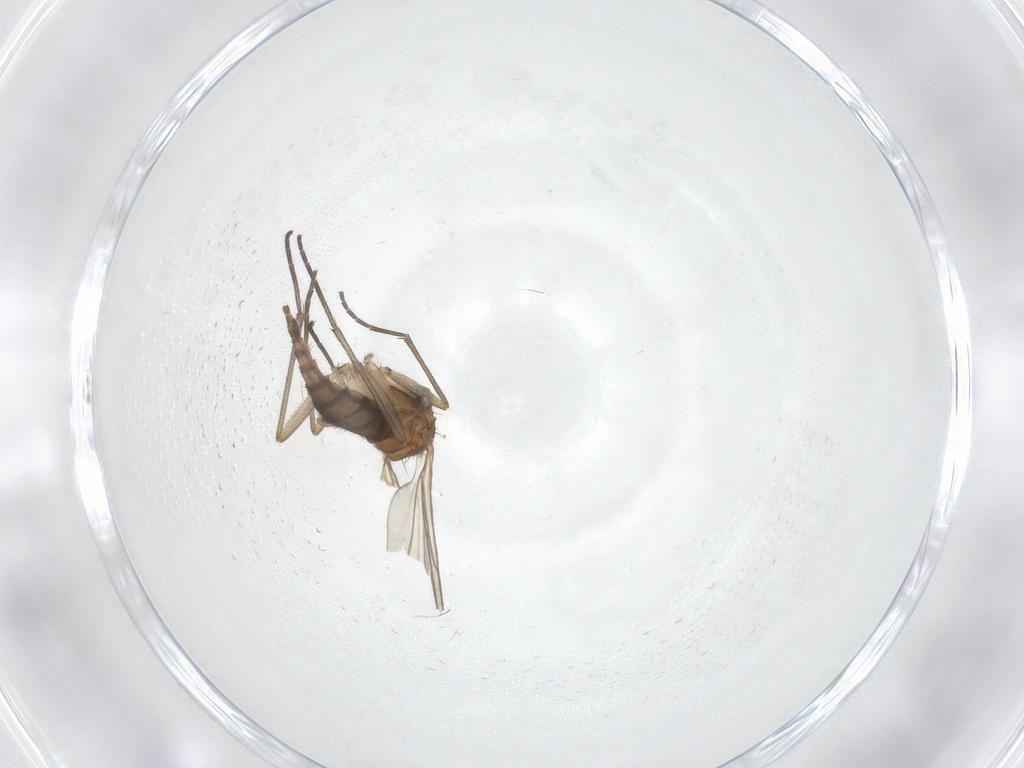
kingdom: Animalia
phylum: Arthropoda
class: Insecta
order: Diptera
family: Sciaridae
